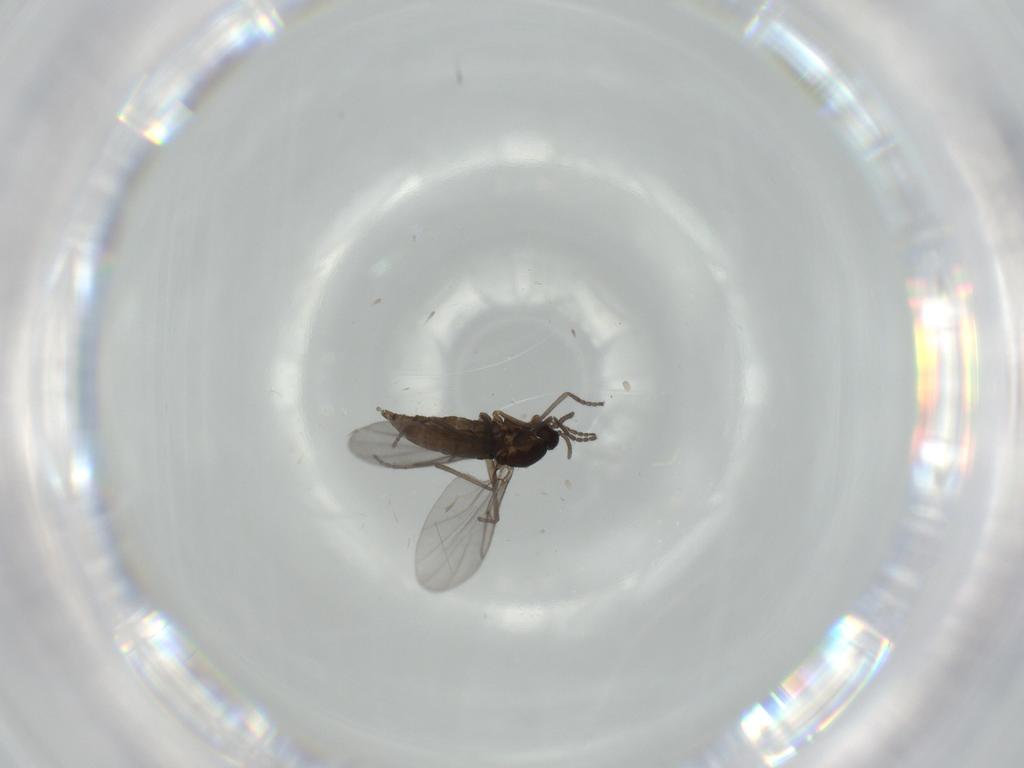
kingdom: Animalia
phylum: Arthropoda
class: Insecta
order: Diptera
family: Cecidomyiidae
